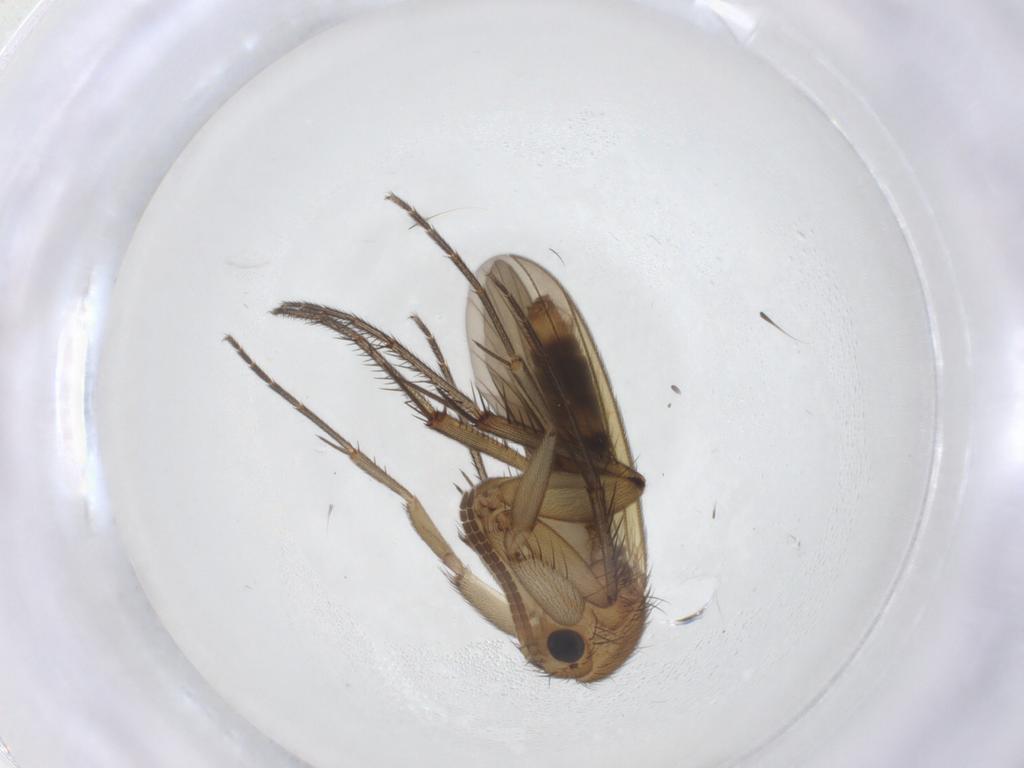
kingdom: Animalia
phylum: Arthropoda
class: Insecta
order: Diptera
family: Mycetophilidae
